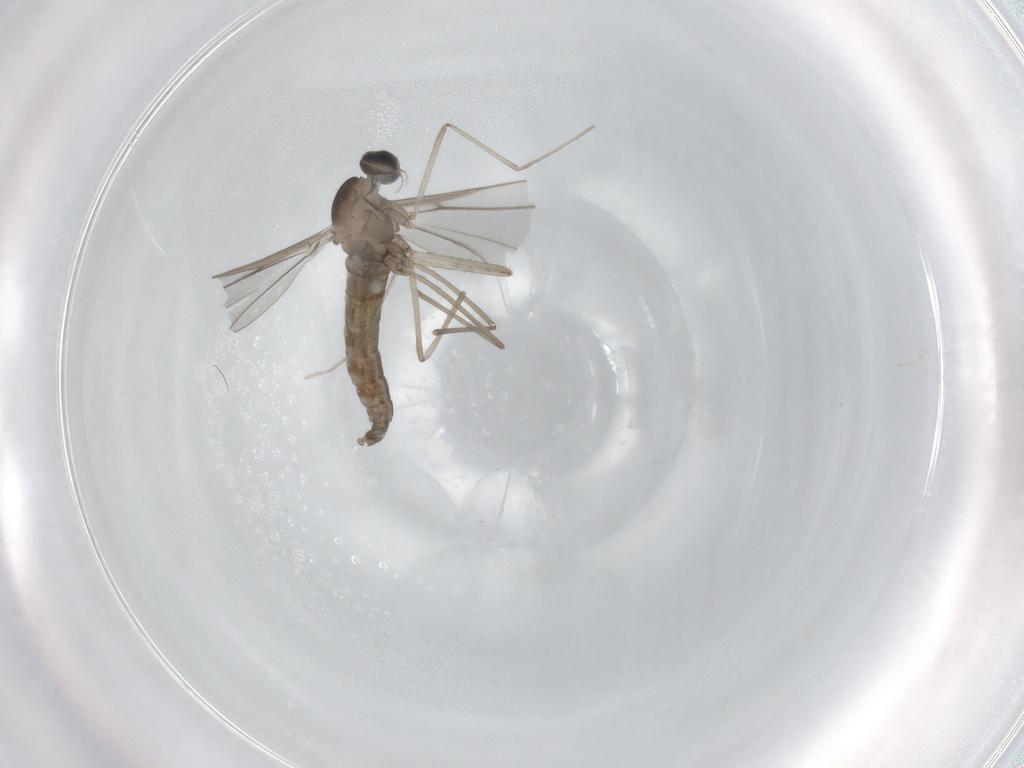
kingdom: Animalia
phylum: Arthropoda
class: Insecta
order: Diptera
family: Cecidomyiidae
